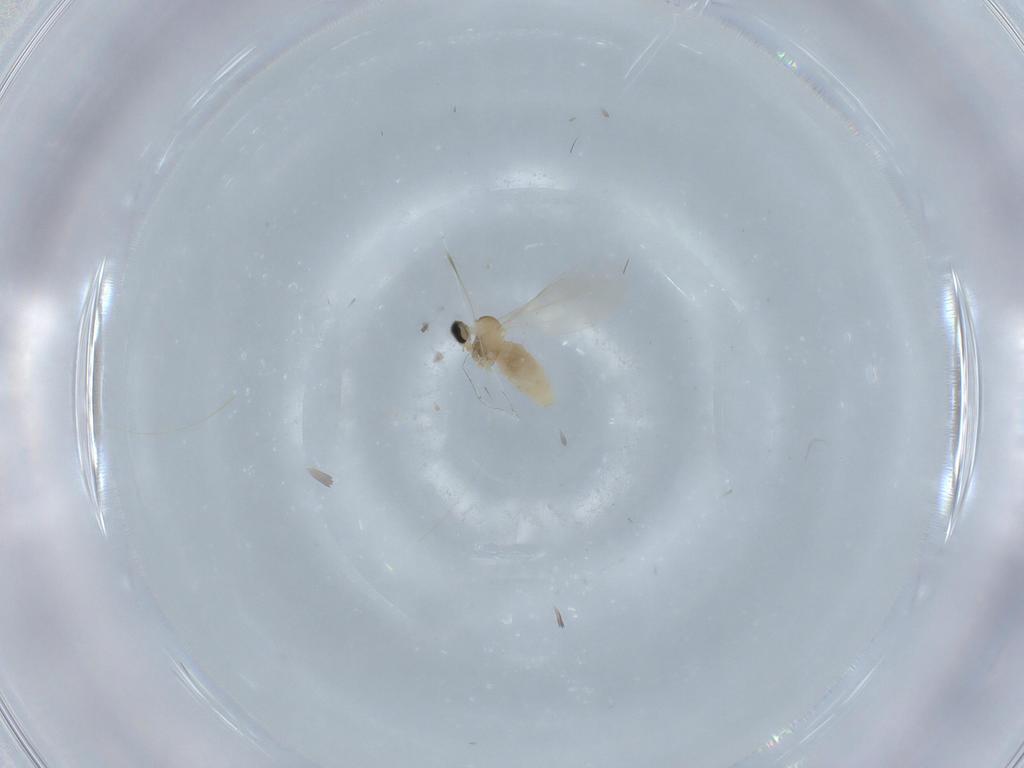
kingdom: Animalia
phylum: Arthropoda
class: Insecta
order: Diptera
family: Cecidomyiidae
